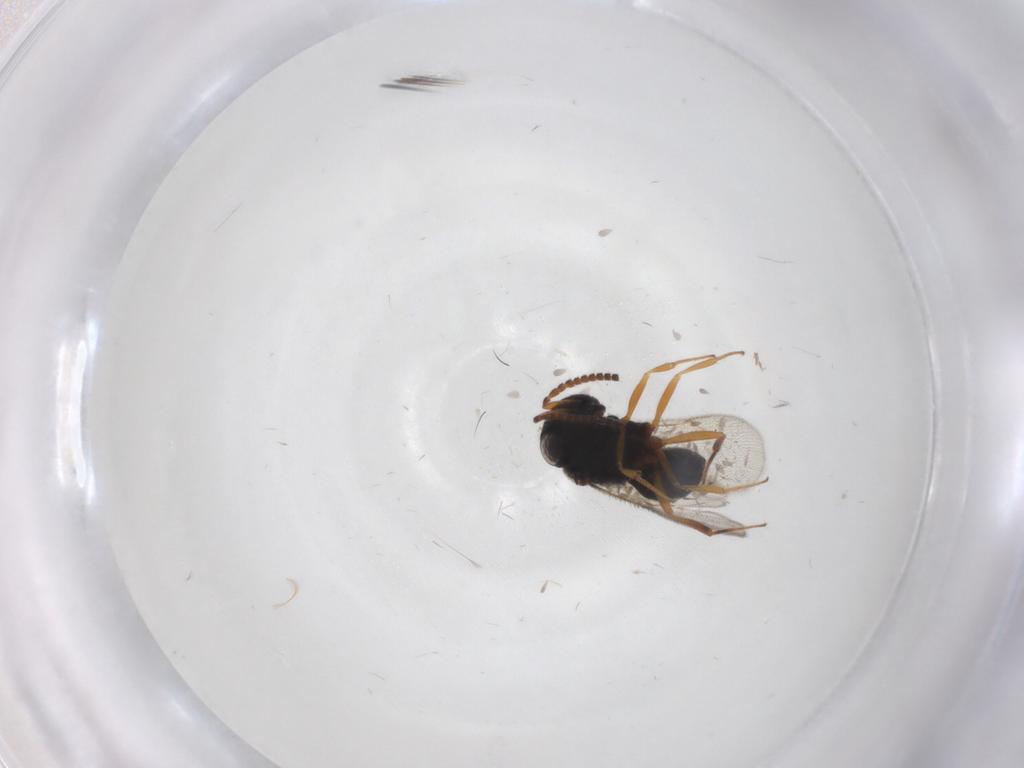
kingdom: Animalia
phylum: Arthropoda
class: Insecta
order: Hymenoptera
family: Scelionidae
